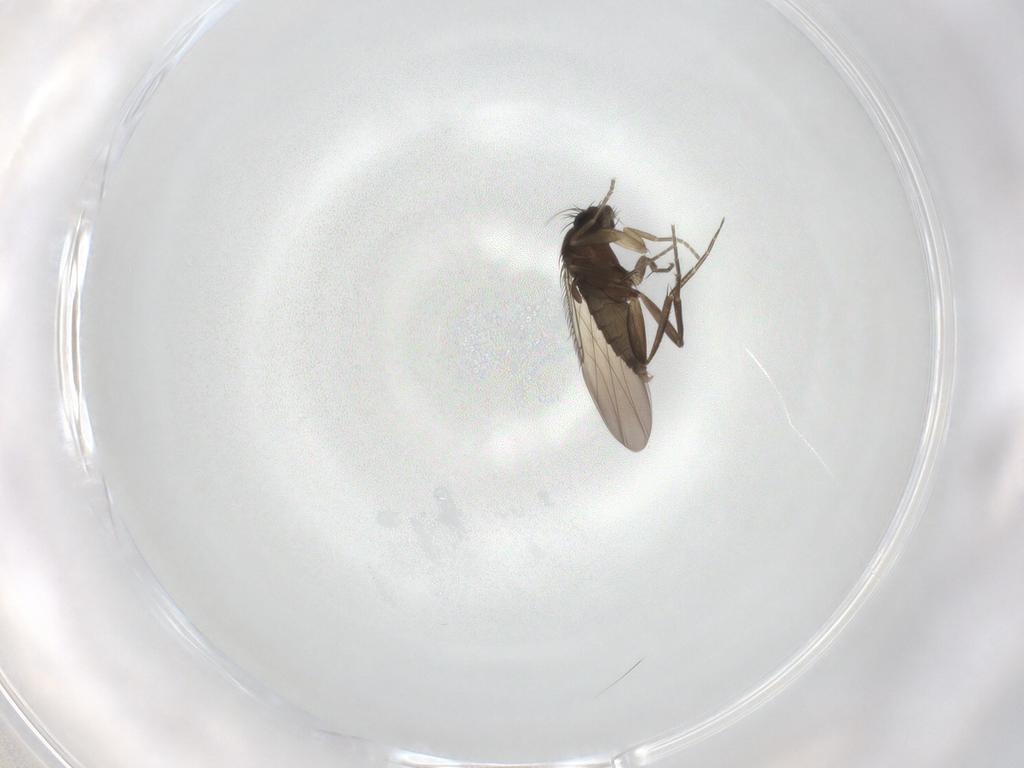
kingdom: Animalia
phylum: Arthropoda
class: Insecta
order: Diptera
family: Phoridae
